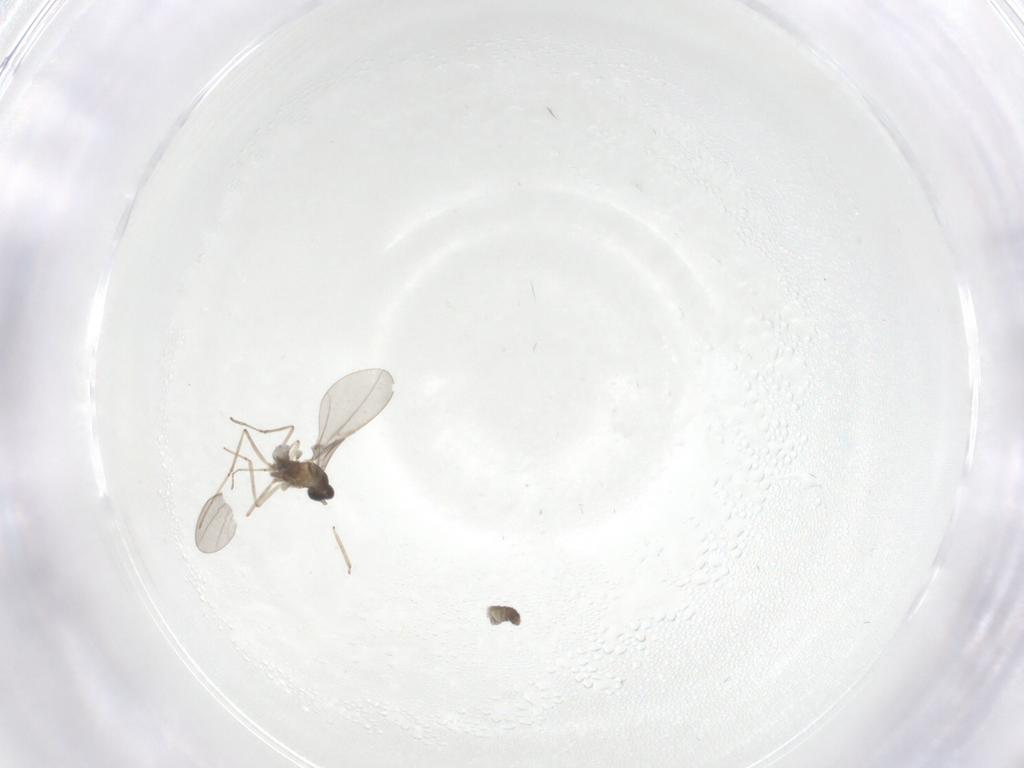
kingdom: Animalia
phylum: Arthropoda
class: Insecta
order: Diptera
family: Cecidomyiidae
